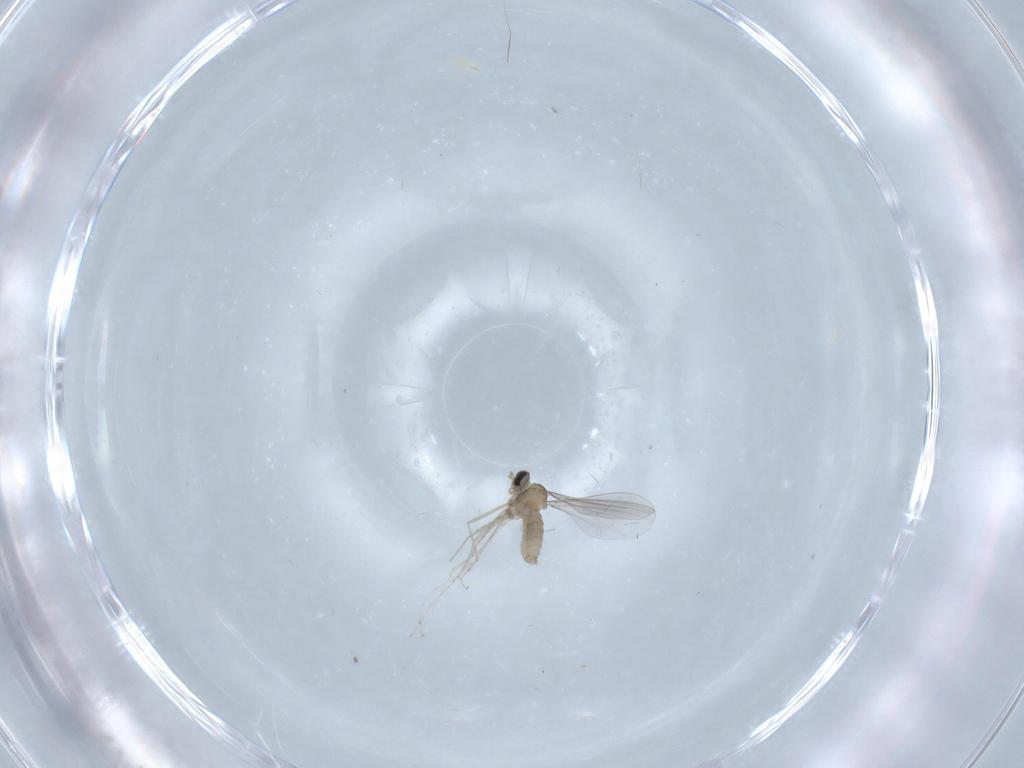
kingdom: Animalia
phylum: Arthropoda
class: Insecta
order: Diptera
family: Cecidomyiidae
